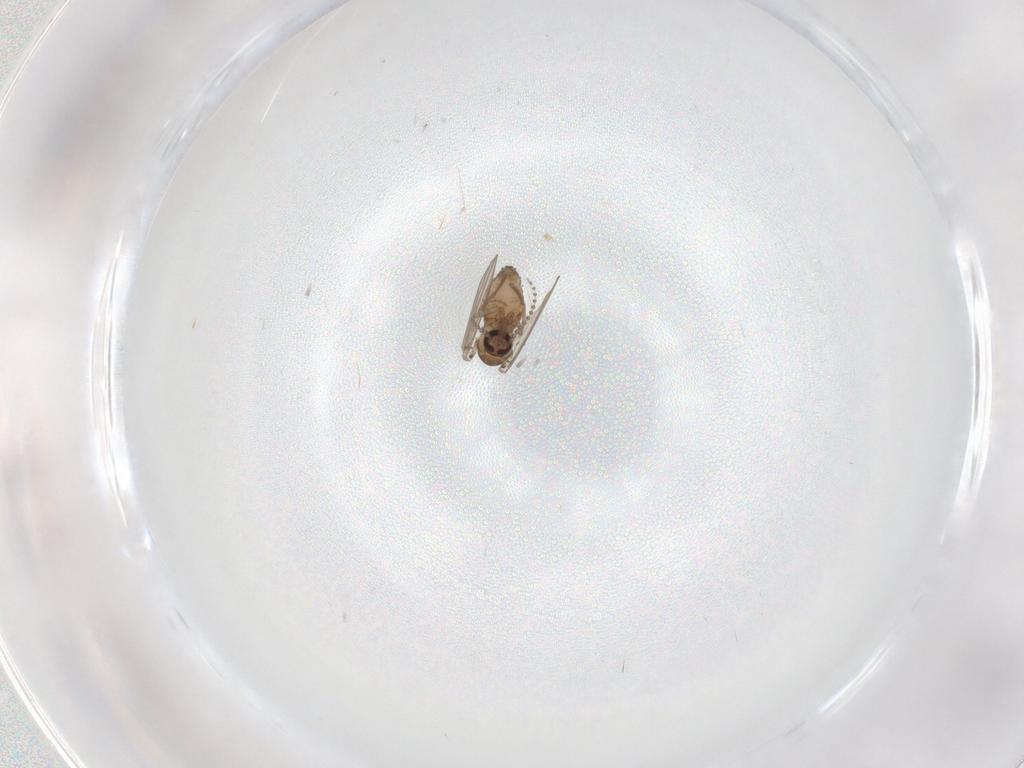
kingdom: Animalia
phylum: Arthropoda
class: Insecta
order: Diptera
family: Psychodidae
